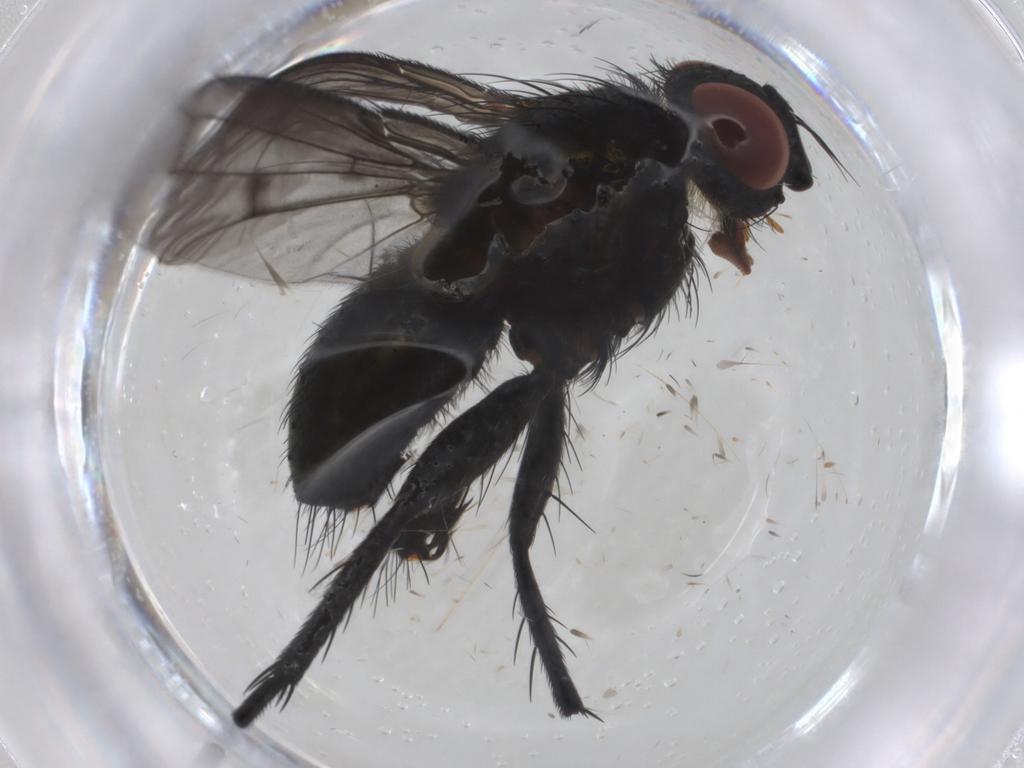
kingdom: Animalia
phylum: Arthropoda
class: Insecta
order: Diptera
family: Tachinidae
